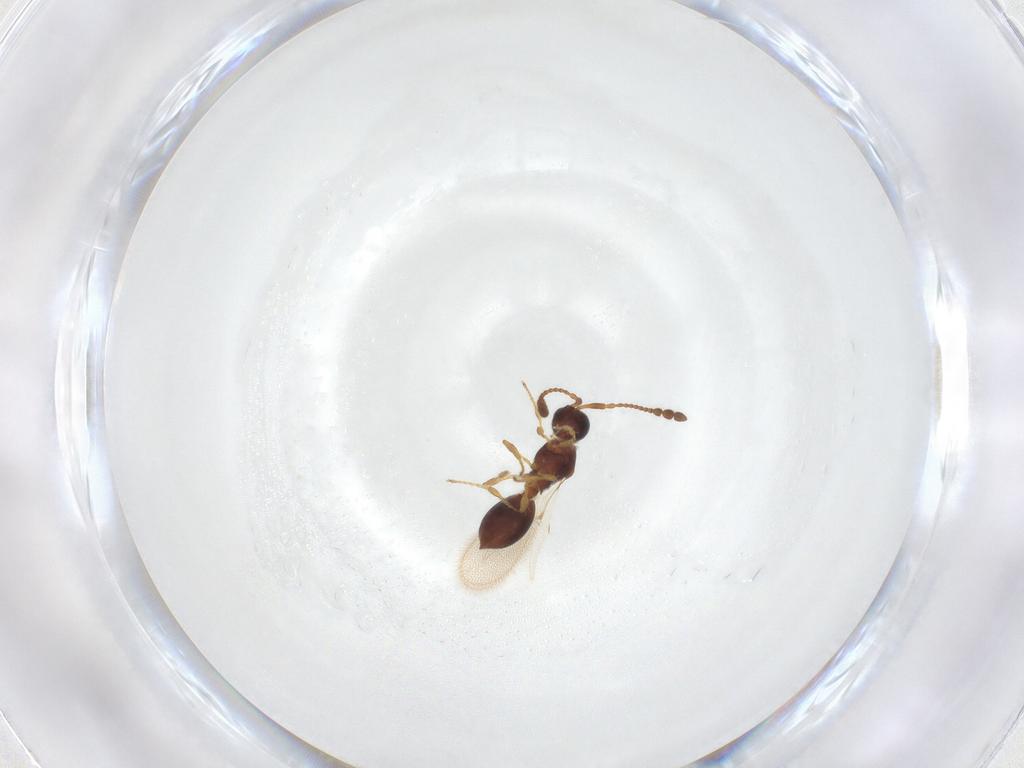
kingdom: Animalia
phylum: Arthropoda
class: Insecta
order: Hymenoptera
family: Diapriidae
